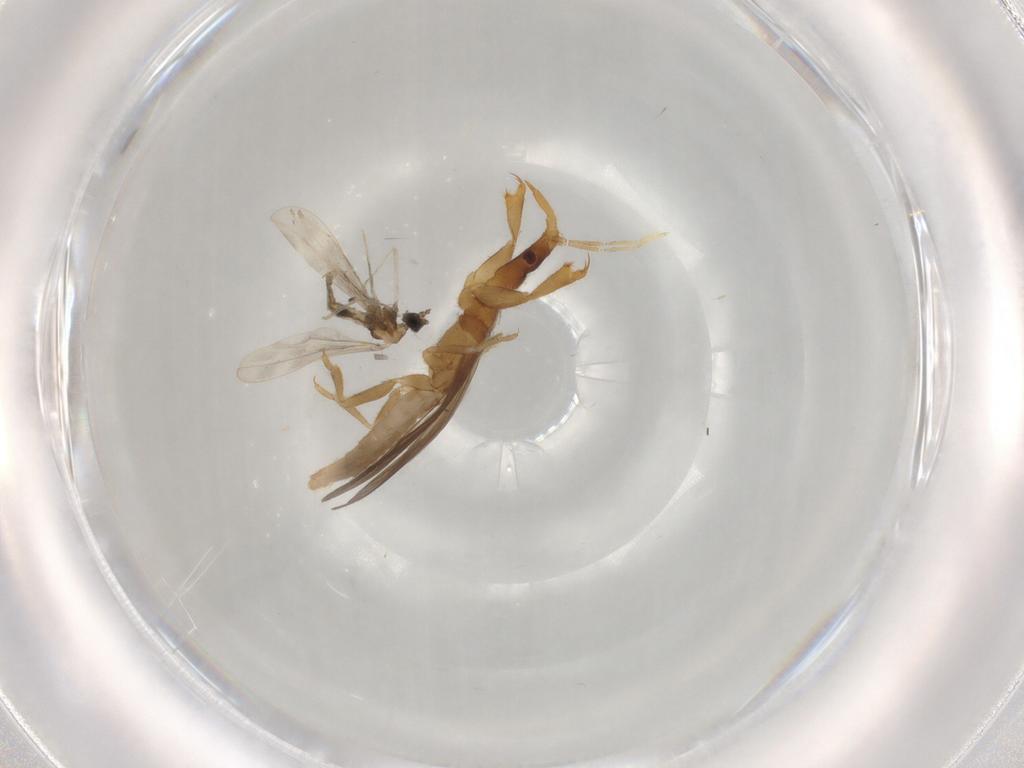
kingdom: Animalia
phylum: Arthropoda
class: Insecta
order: Diptera
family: Cecidomyiidae
